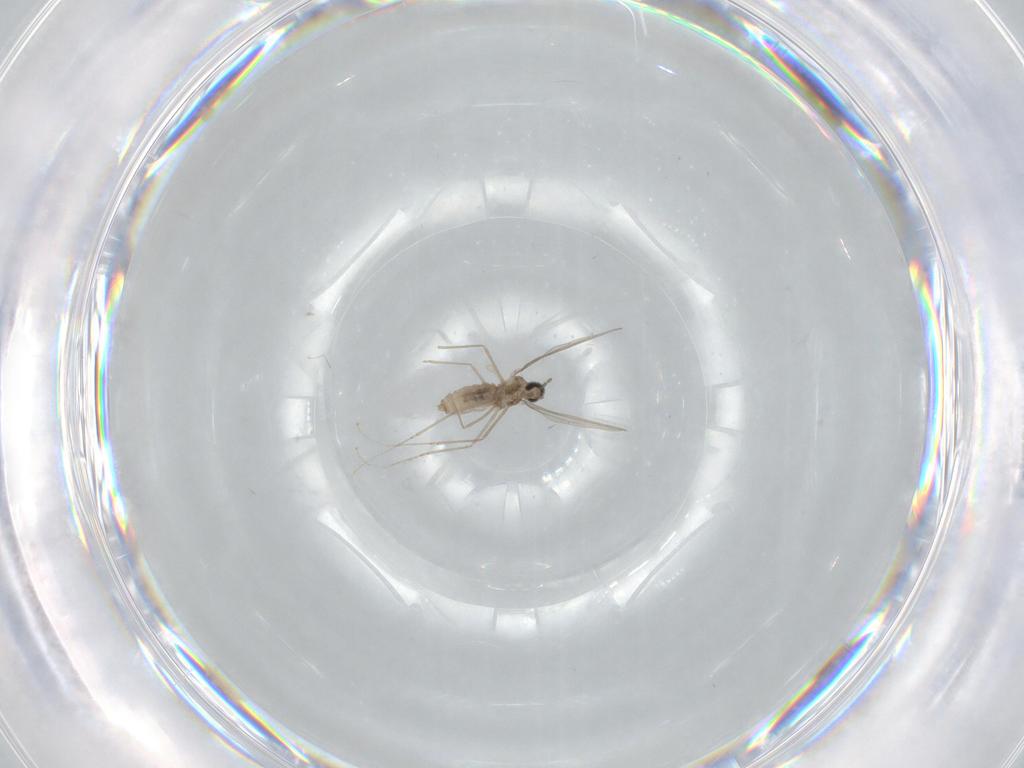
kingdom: Animalia
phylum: Arthropoda
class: Insecta
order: Diptera
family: Cecidomyiidae
